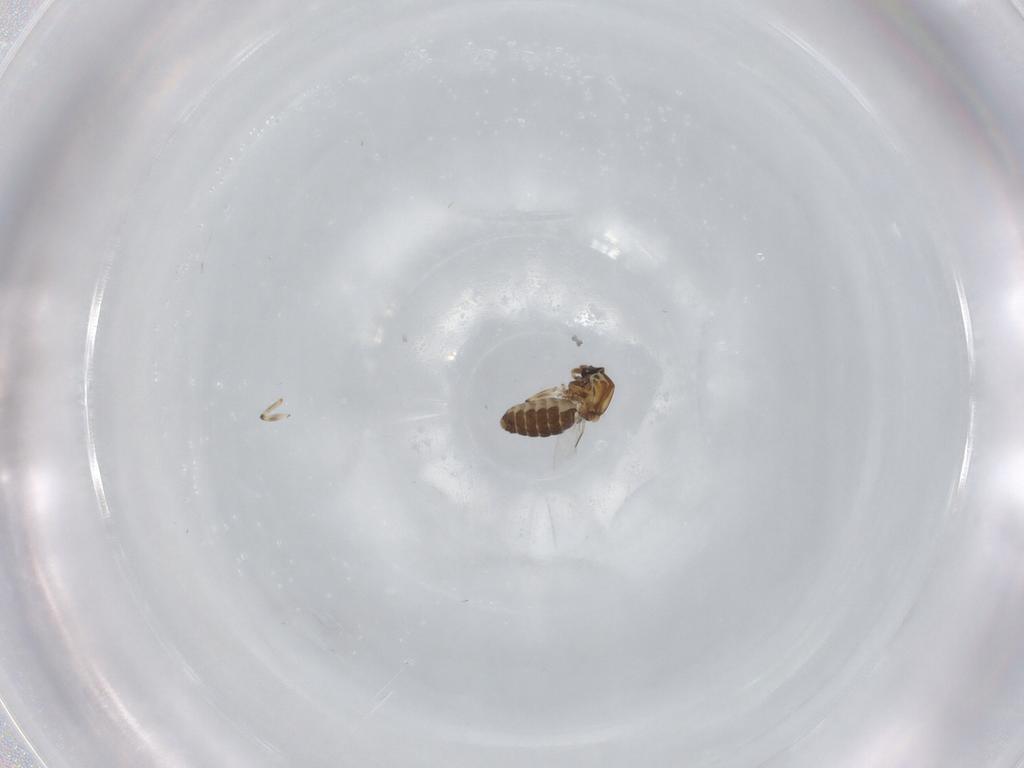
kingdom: Animalia
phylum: Arthropoda
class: Insecta
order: Diptera
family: Ceratopogonidae
